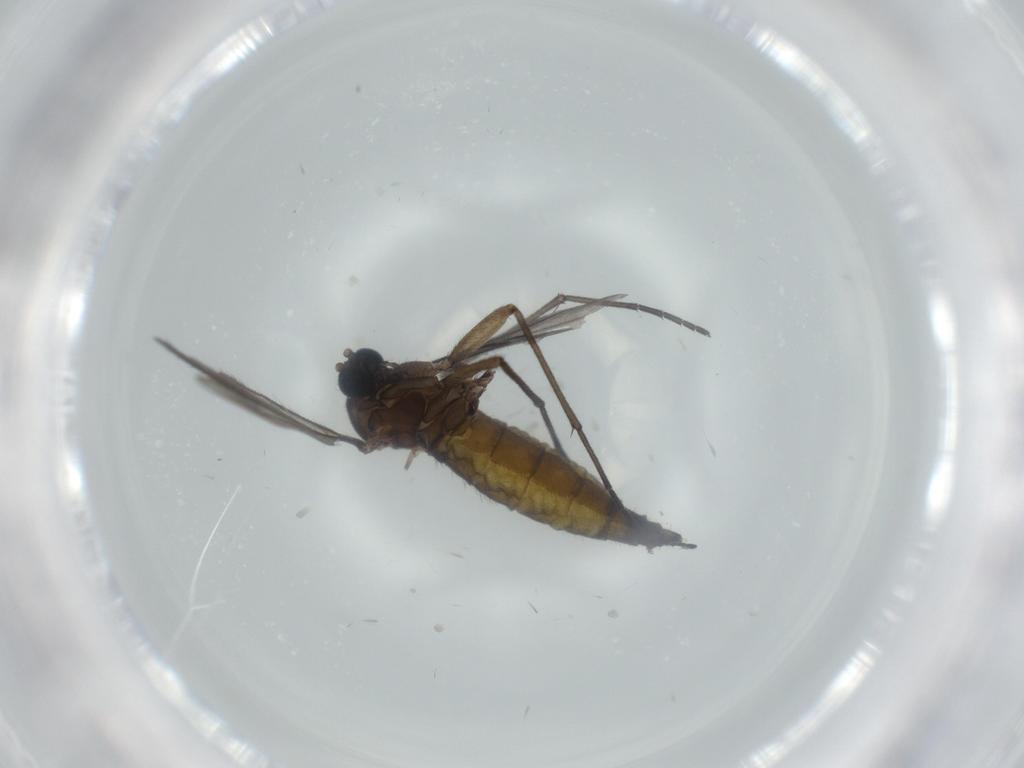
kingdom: Animalia
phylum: Arthropoda
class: Insecta
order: Diptera
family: Sciaridae
